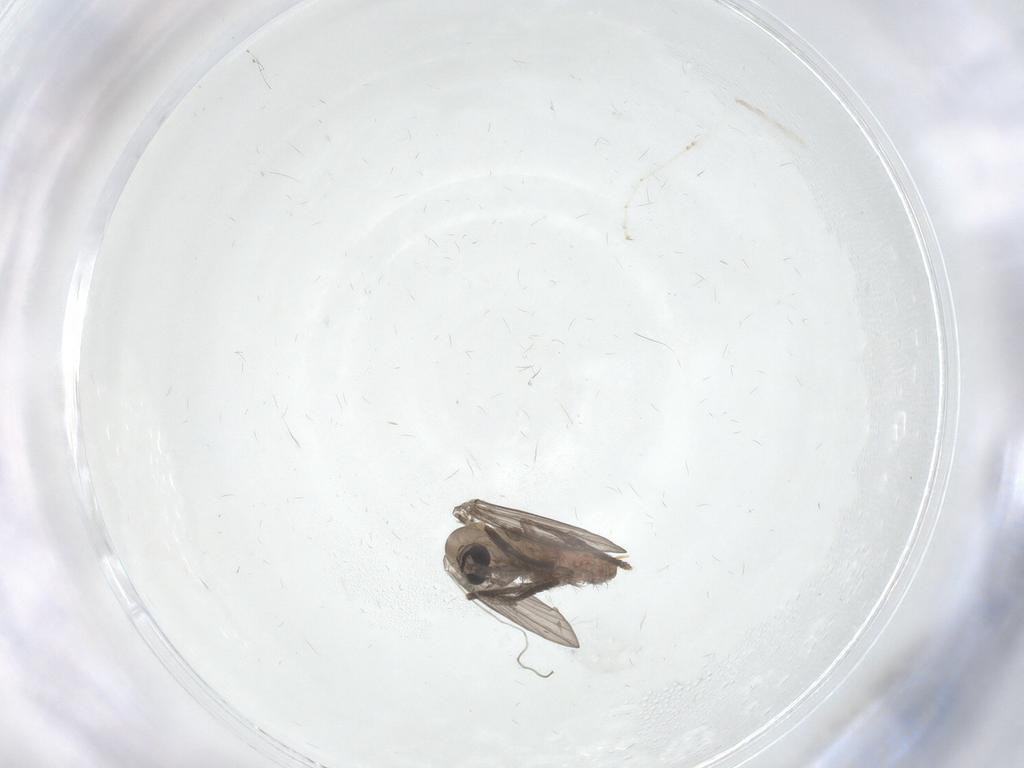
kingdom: Animalia
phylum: Arthropoda
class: Insecta
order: Diptera
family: Psychodidae
